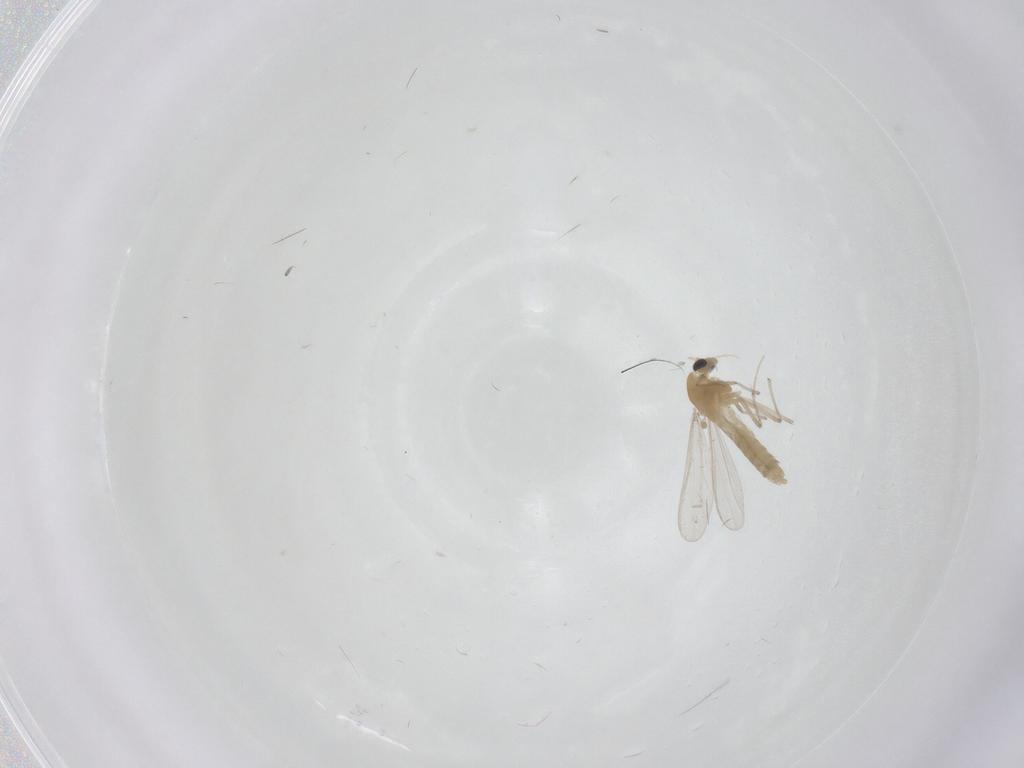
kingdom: Animalia
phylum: Arthropoda
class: Insecta
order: Diptera
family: Chironomidae
